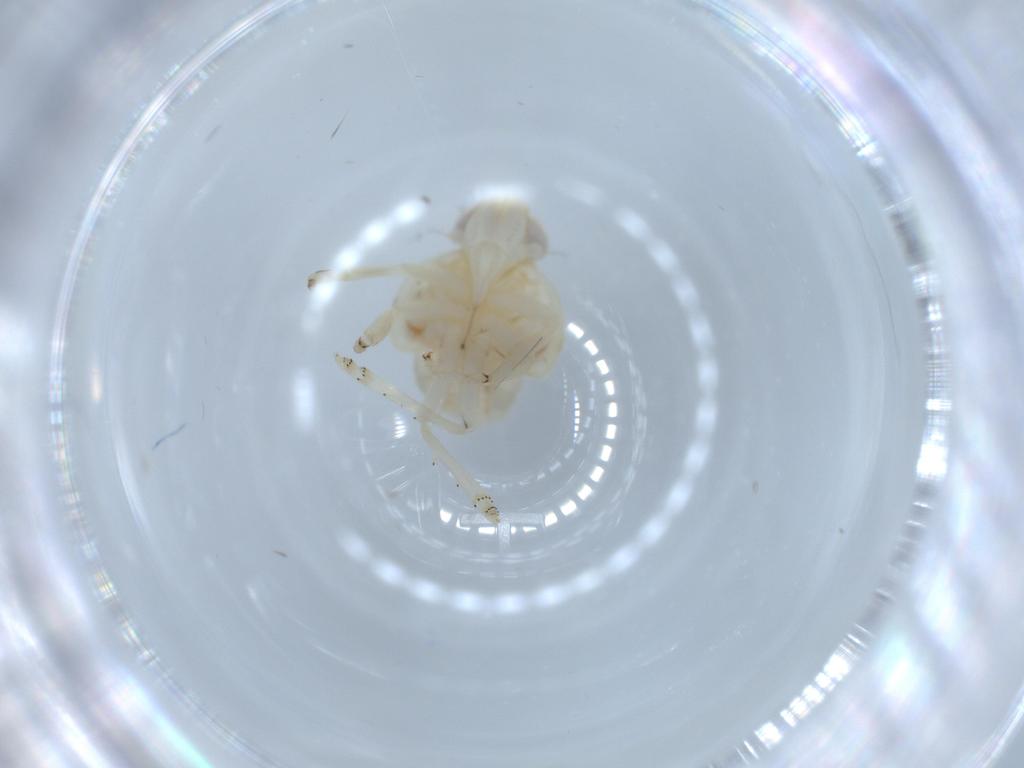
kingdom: Animalia
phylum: Arthropoda
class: Insecta
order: Hemiptera
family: Nogodinidae
